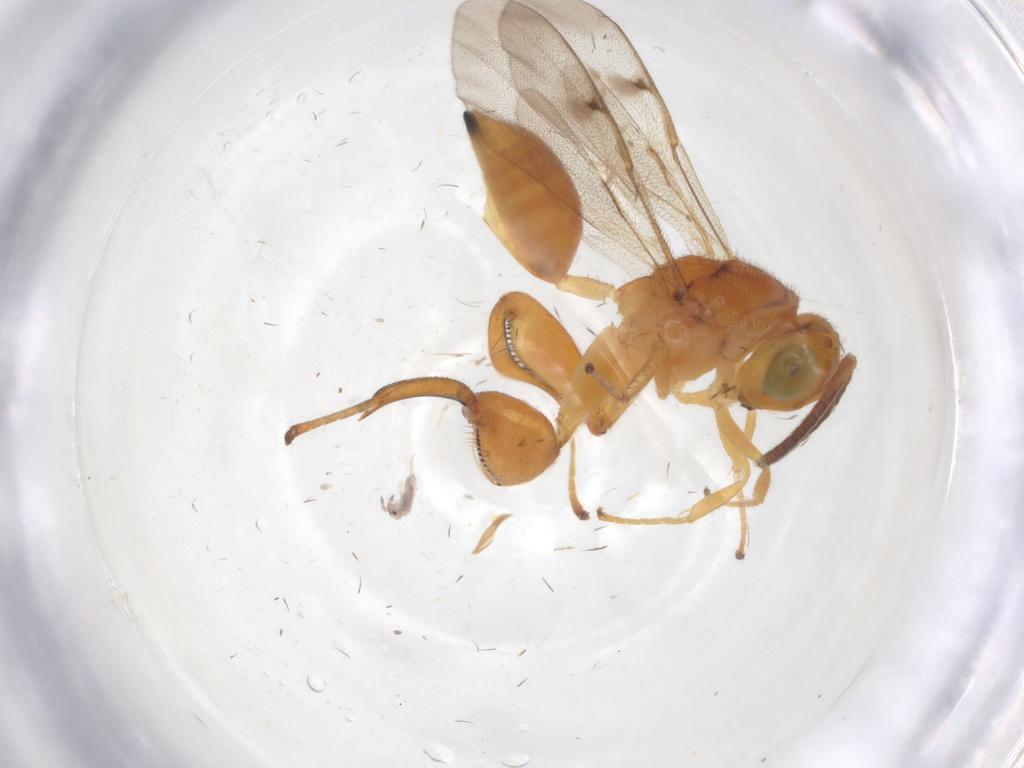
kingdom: Animalia
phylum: Arthropoda
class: Insecta
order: Hymenoptera
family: Chalcididae
